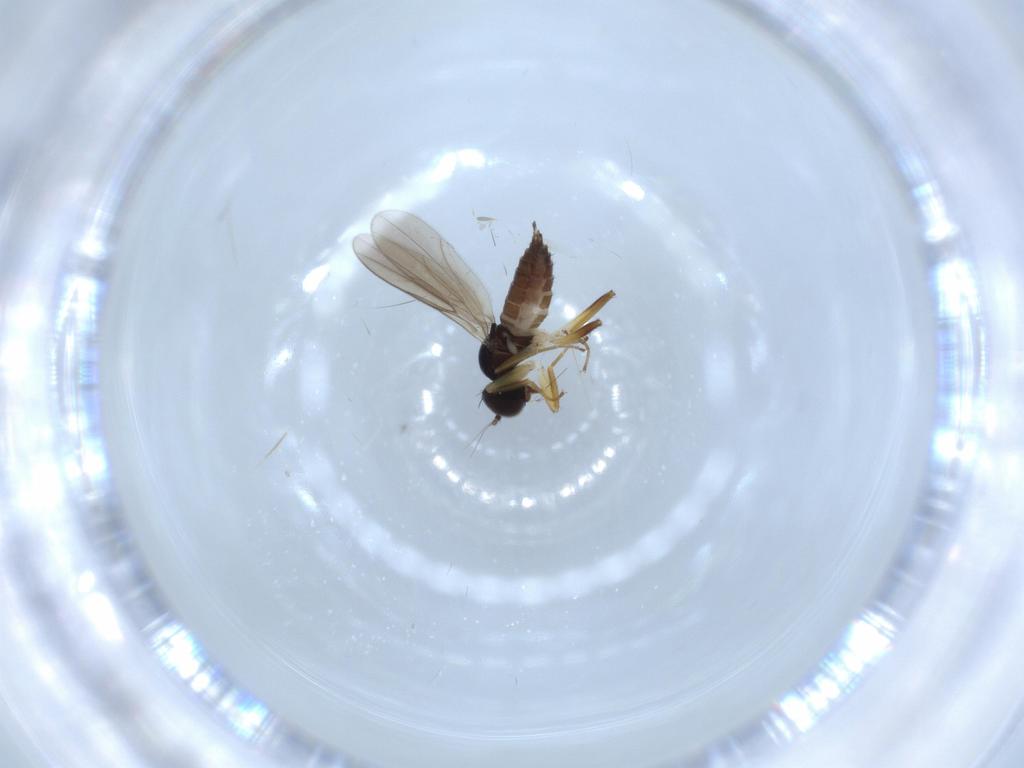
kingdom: Animalia
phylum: Arthropoda
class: Insecta
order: Diptera
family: Hybotidae
